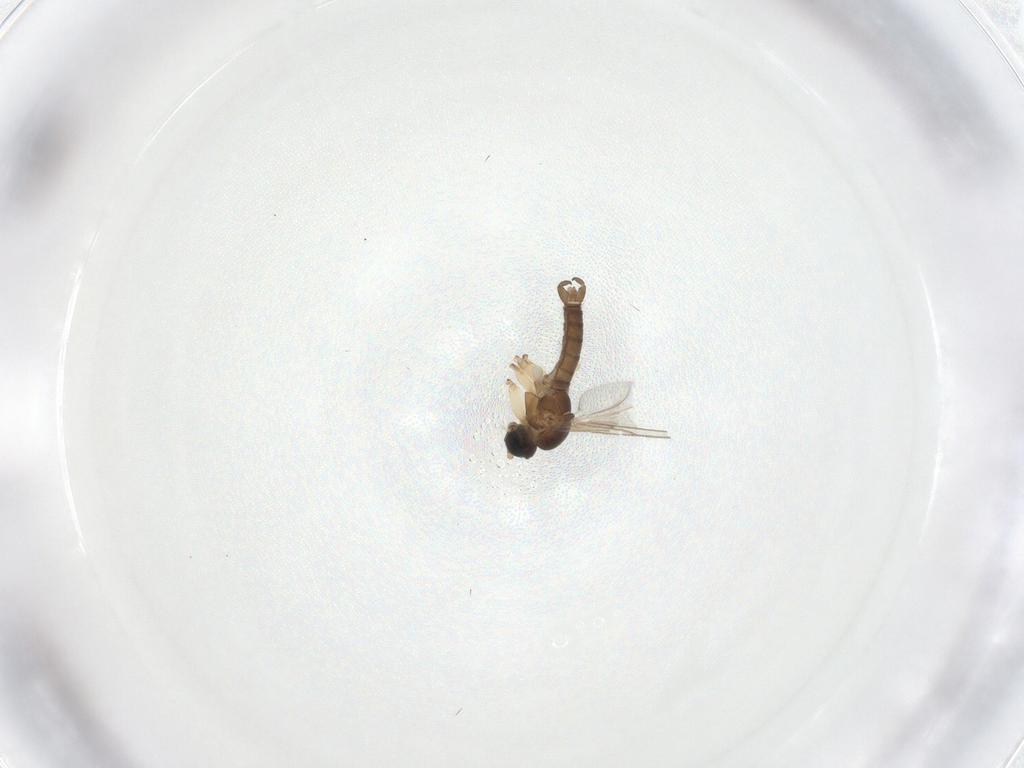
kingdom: Animalia
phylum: Arthropoda
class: Insecta
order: Diptera
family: Sciaridae
